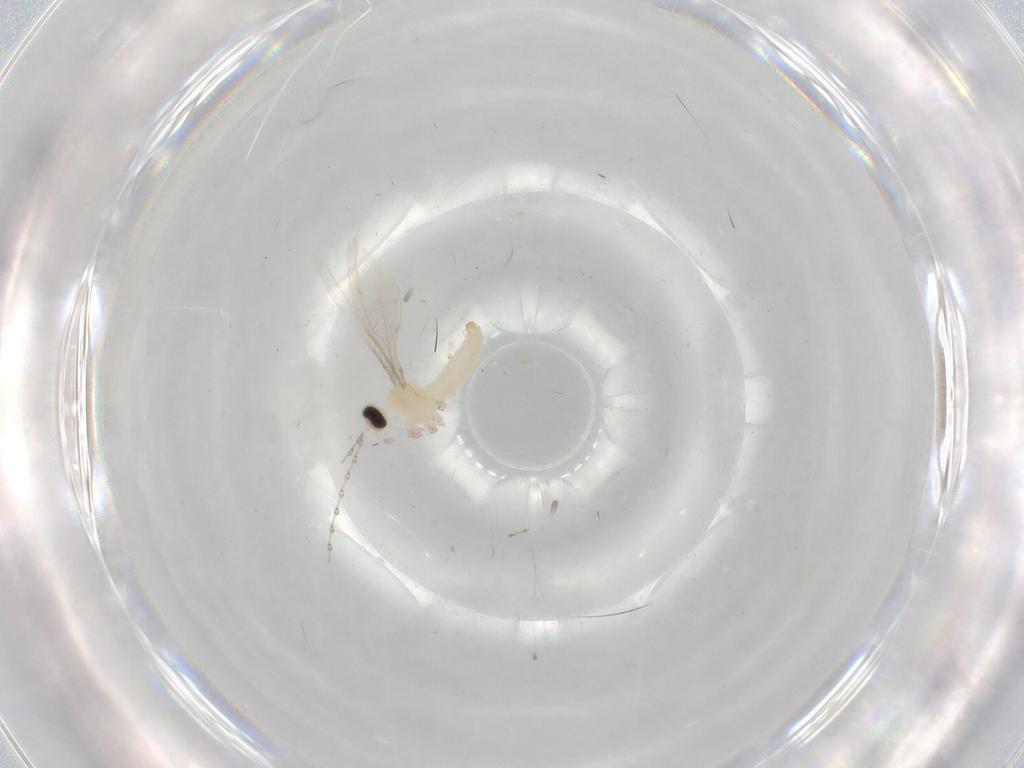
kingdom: Animalia
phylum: Arthropoda
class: Insecta
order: Diptera
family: Cecidomyiidae
